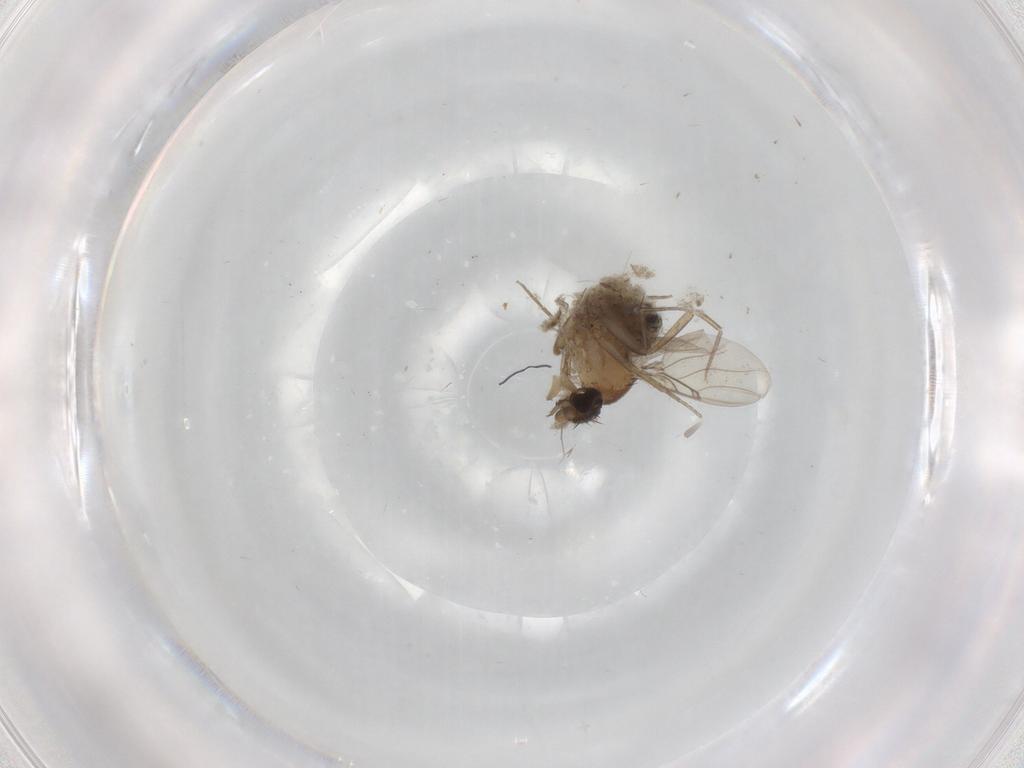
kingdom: Animalia
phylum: Arthropoda
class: Insecta
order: Diptera
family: Phoridae
